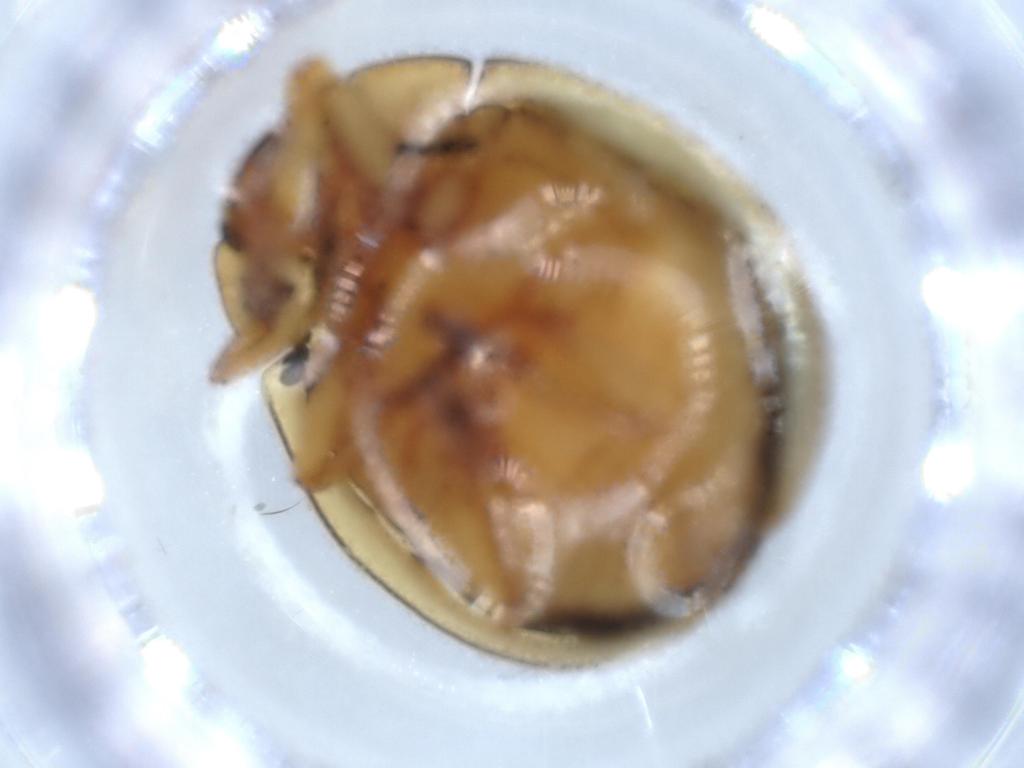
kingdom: Animalia
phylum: Arthropoda
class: Insecta
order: Coleoptera
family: Chrysomelidae
